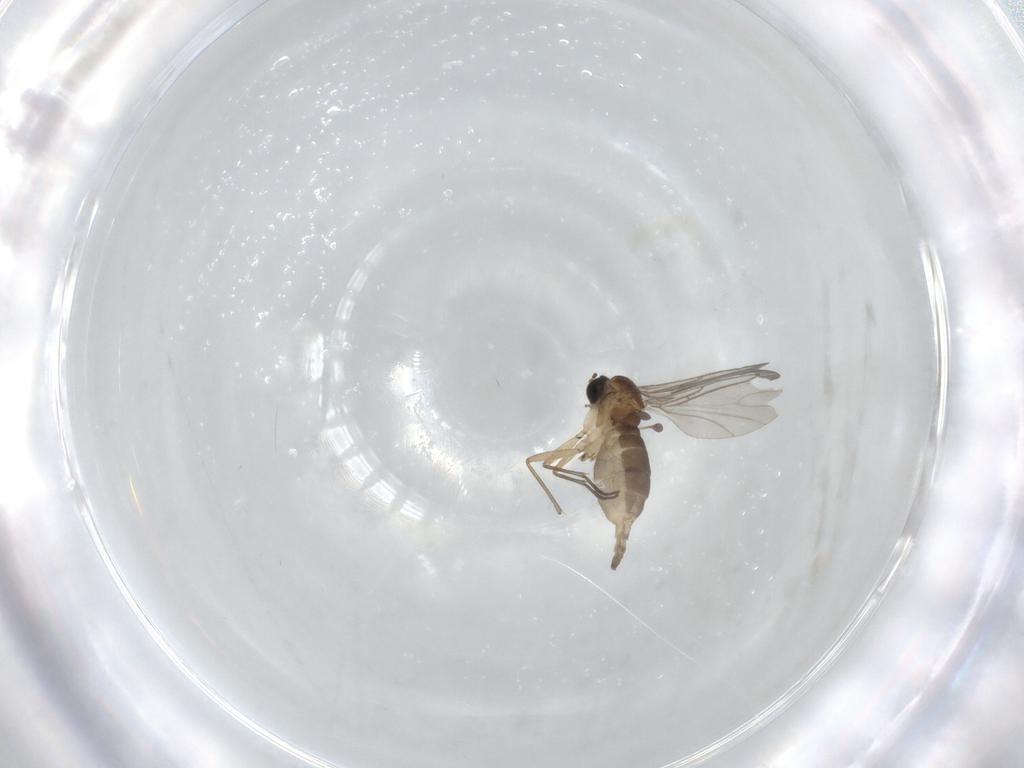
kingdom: Animalia
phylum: Arthropoda
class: Insecta
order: Diptera
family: Sciaridae
